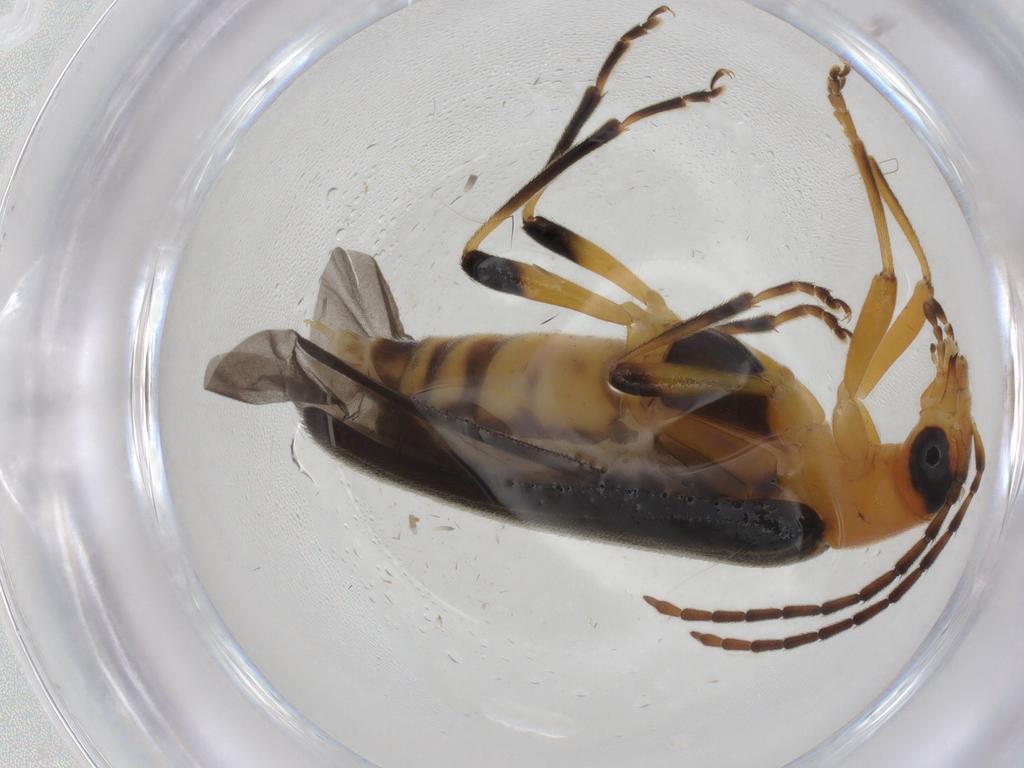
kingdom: Animalia
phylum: Arthropoda
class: Insecta
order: Coleoptera
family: Oedemeridae
